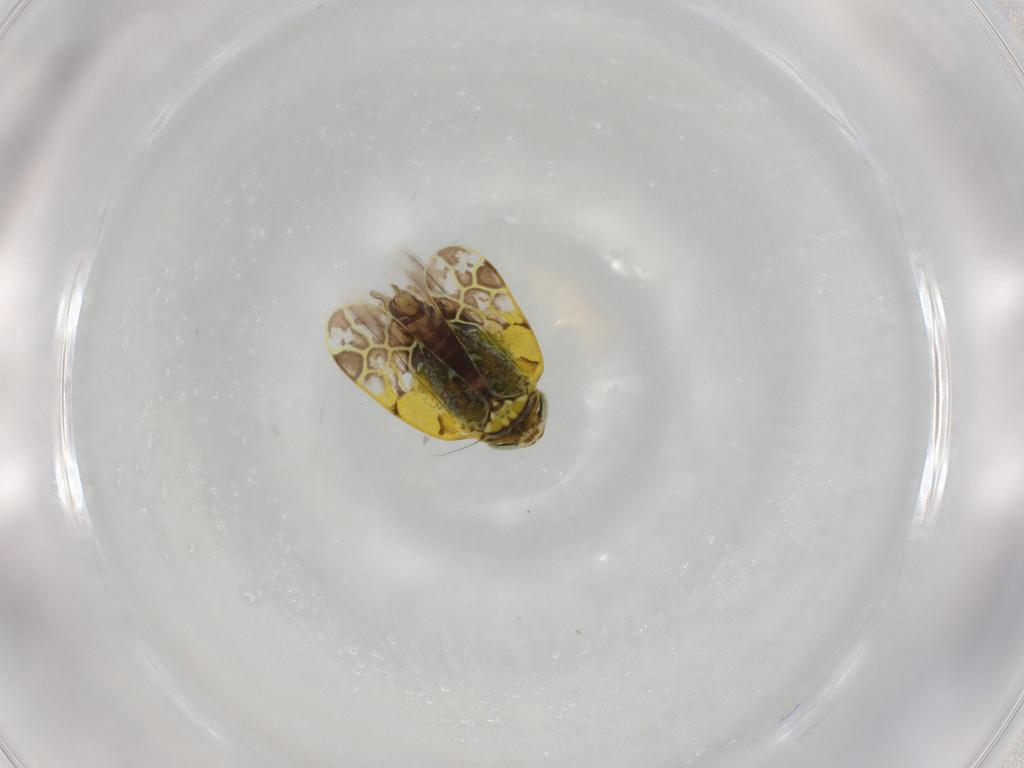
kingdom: Animalia
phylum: Arthropoda
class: Insecta
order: Hemiptera
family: Cicadellidae
